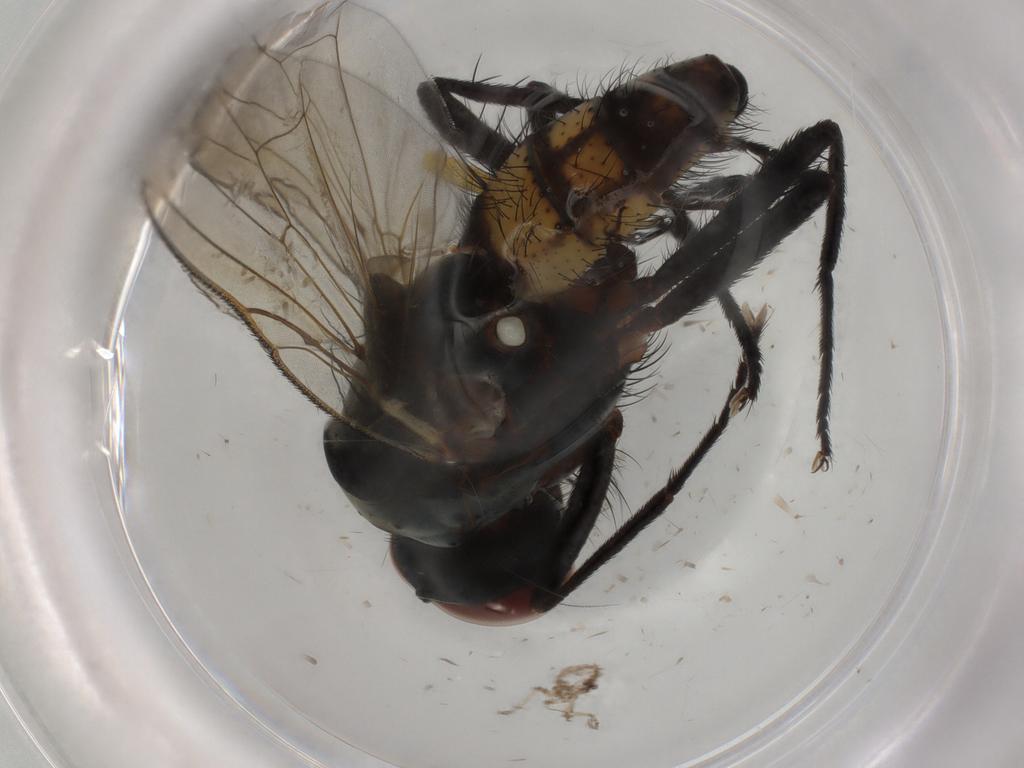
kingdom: Animalia
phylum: Arthropoda
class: Insecta
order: Diptera
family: Anthomyiidae
